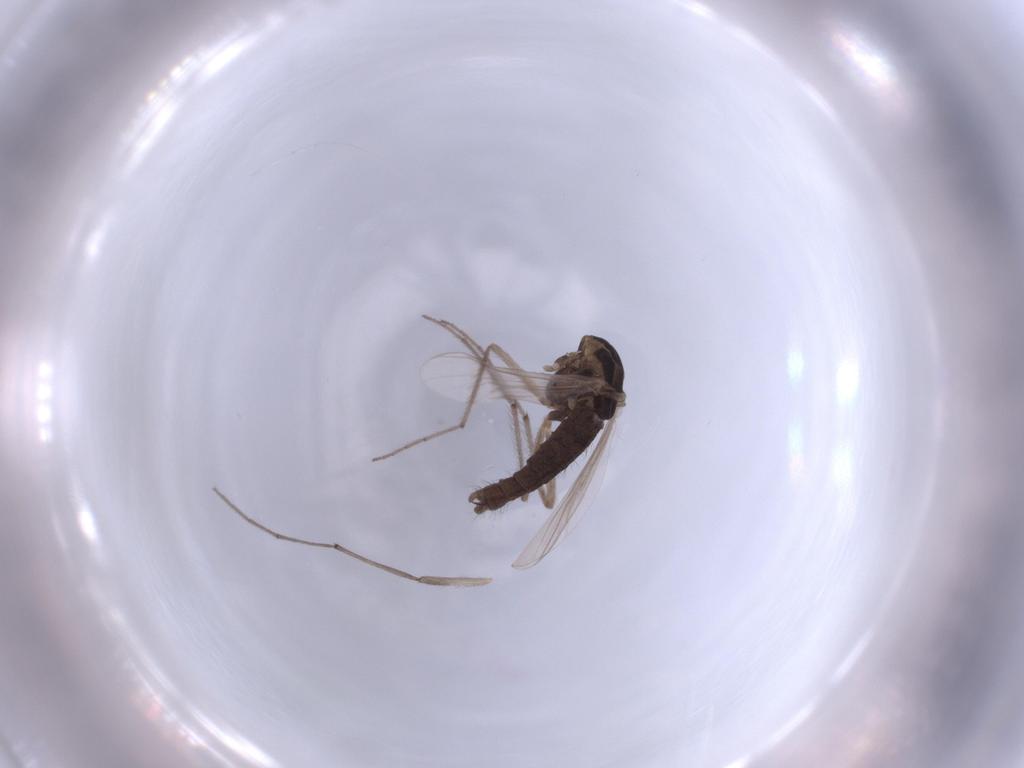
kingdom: Animalia
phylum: Arthropoda
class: Insecta
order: Diptera
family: Chironomidae
